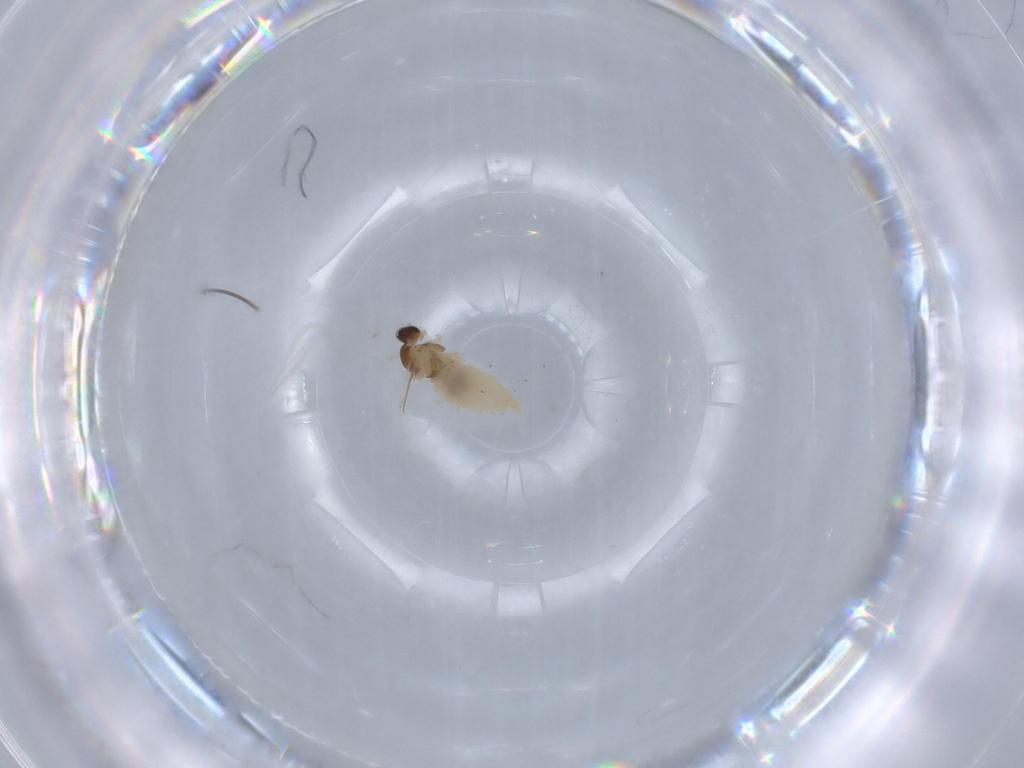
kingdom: Animalia
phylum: Arthropoda
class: Insecta
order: Diptera
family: Cecidomyiidae
